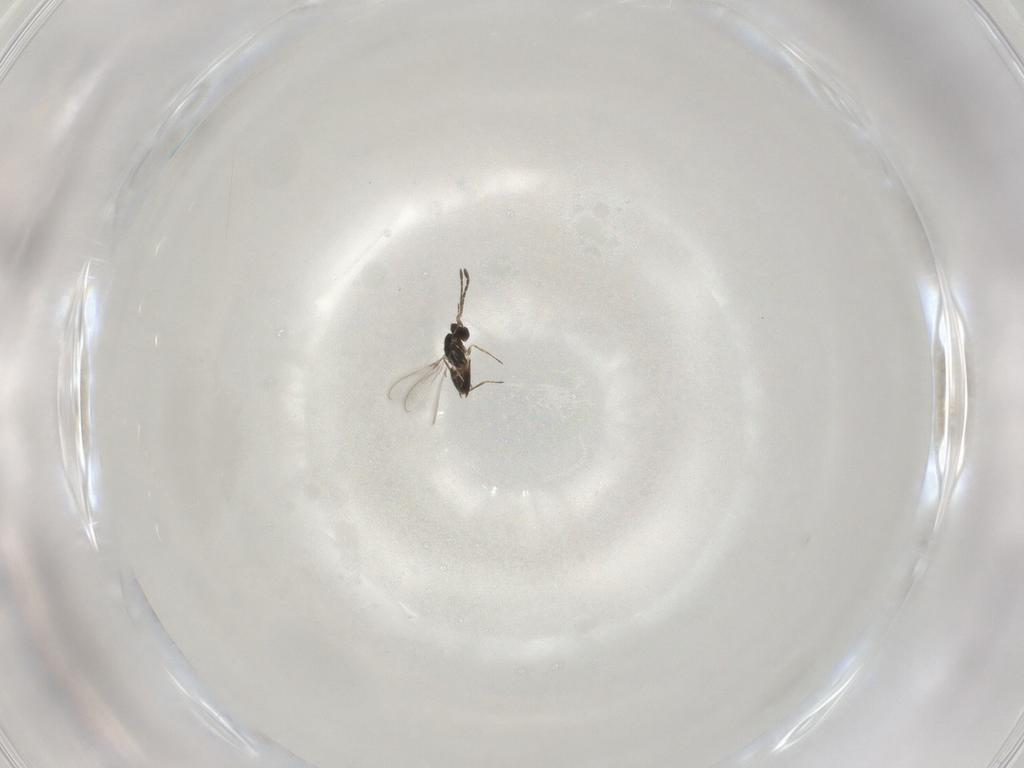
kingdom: Animalia
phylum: Arthropoda
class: Insecta
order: Hymenoptera
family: Mymaridae
